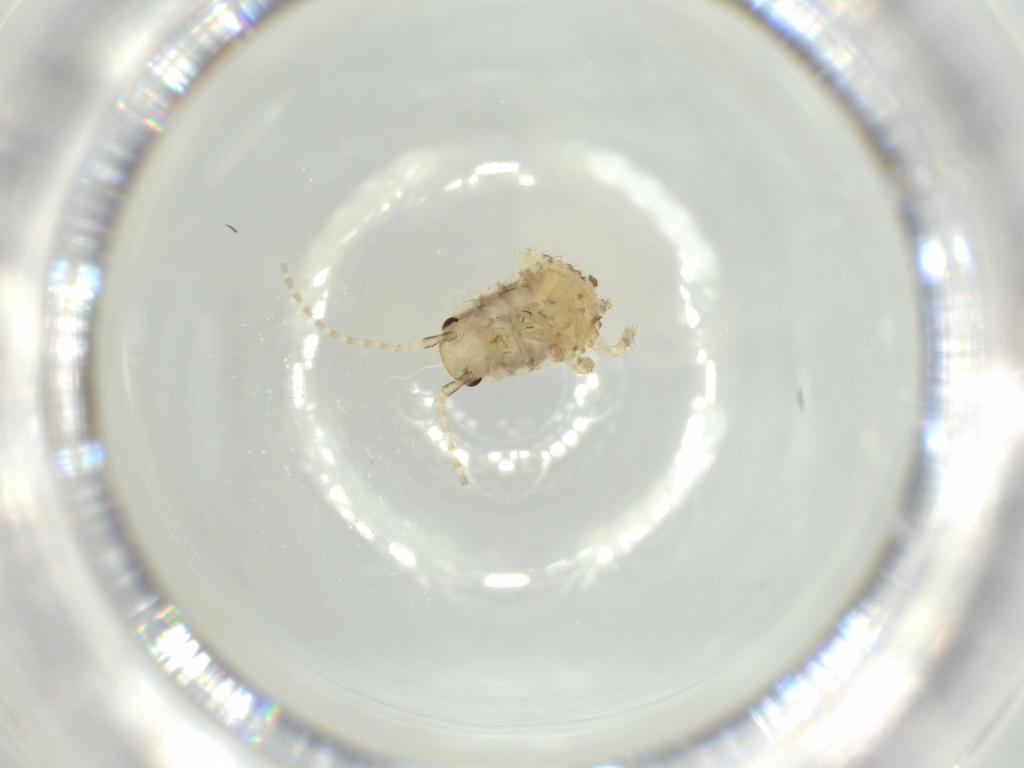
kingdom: Animalia
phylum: Arthropoda
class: Insecta
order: Blattodea
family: Ectobiidae
